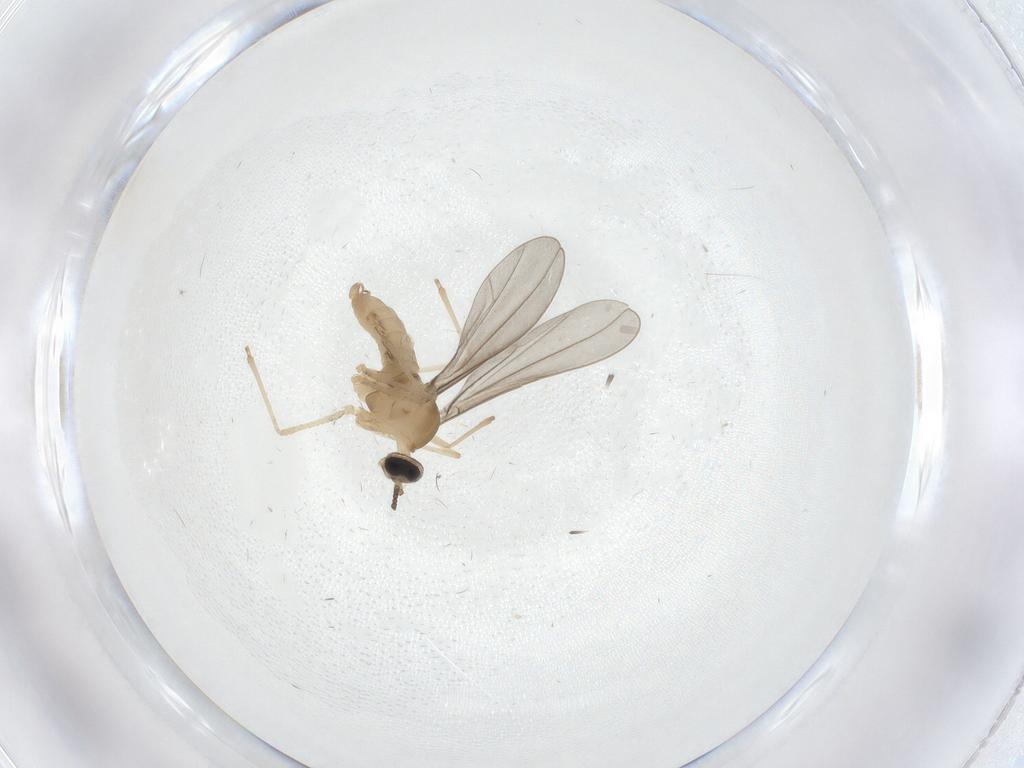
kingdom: Animalia
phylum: Arthropoda
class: Insecta
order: Diptera
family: Cecidomyiidae
